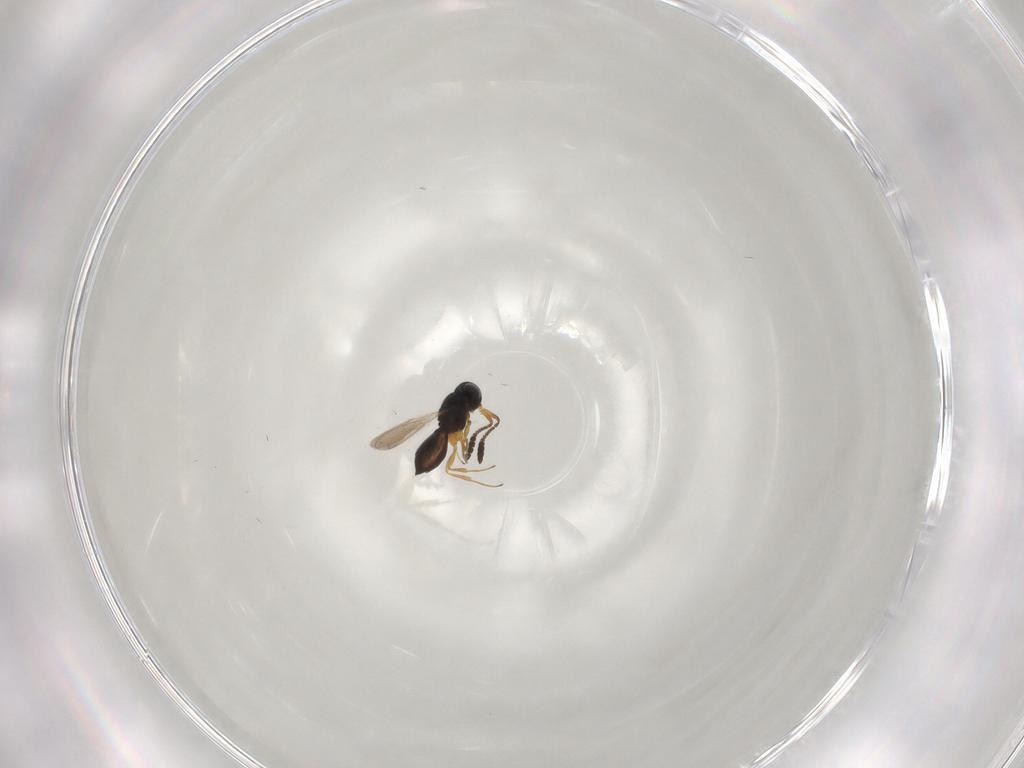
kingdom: Animalia
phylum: Arthropoda
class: Insecta
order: Hymenoptera
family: Scelionidae
